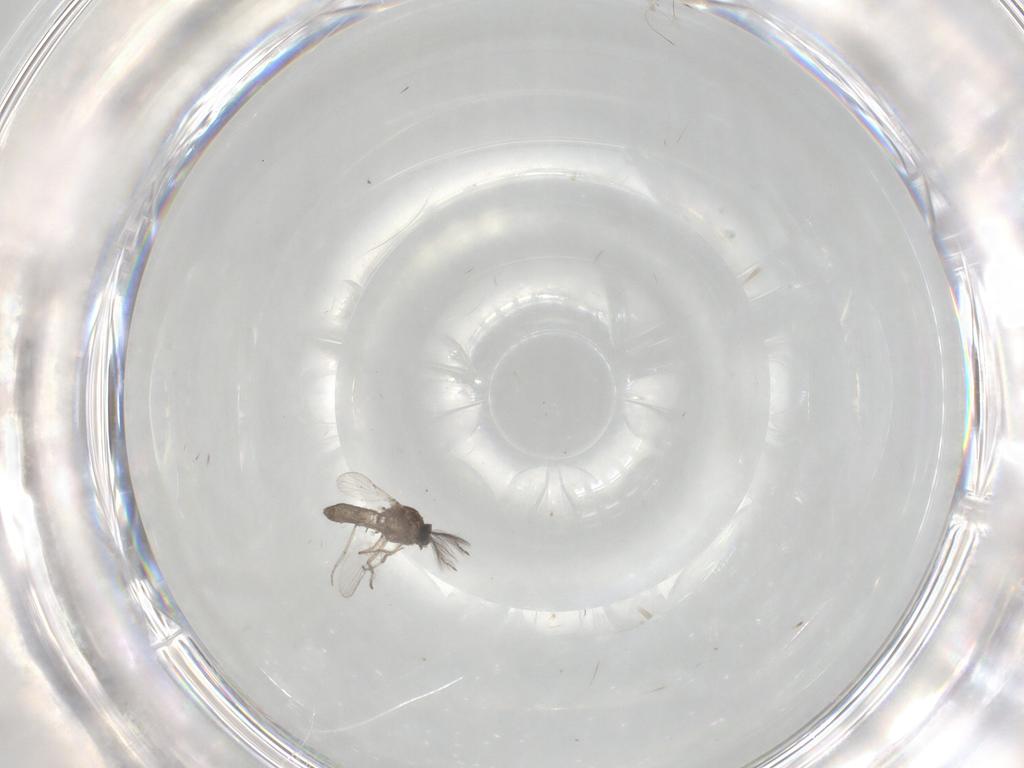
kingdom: Animalia
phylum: Arthropoda
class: Insecta
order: Diptera
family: Ceratopogonidae
